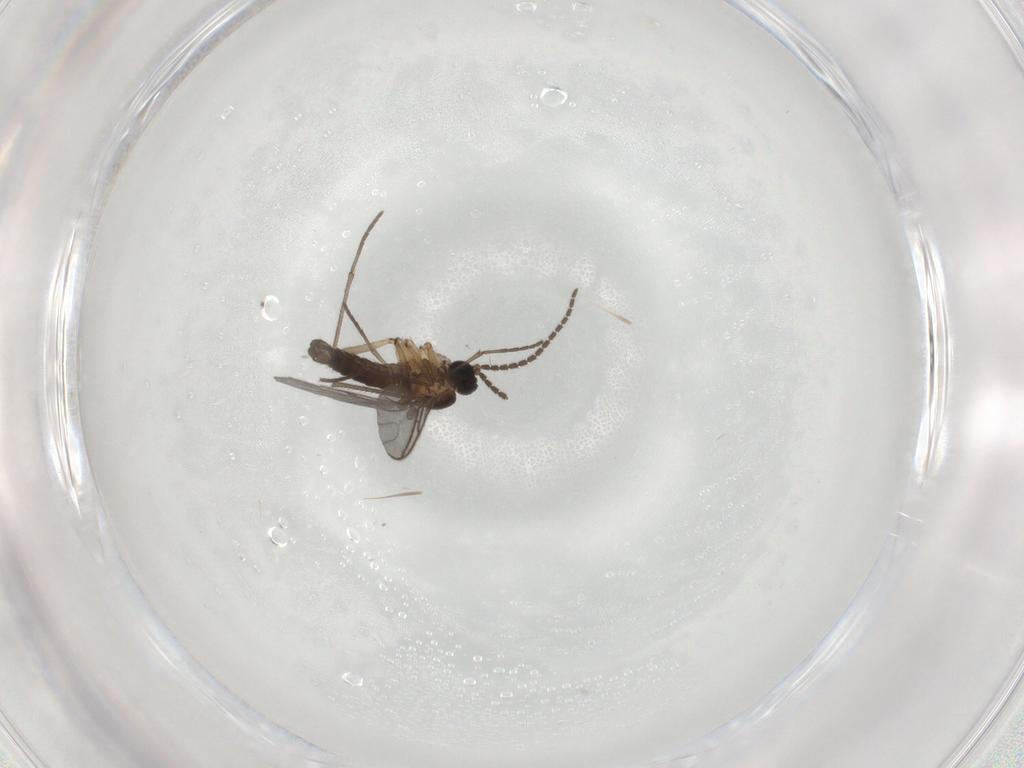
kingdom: Animalia
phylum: Arthropoda
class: Insecta
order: Diptera
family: Sciaridae
